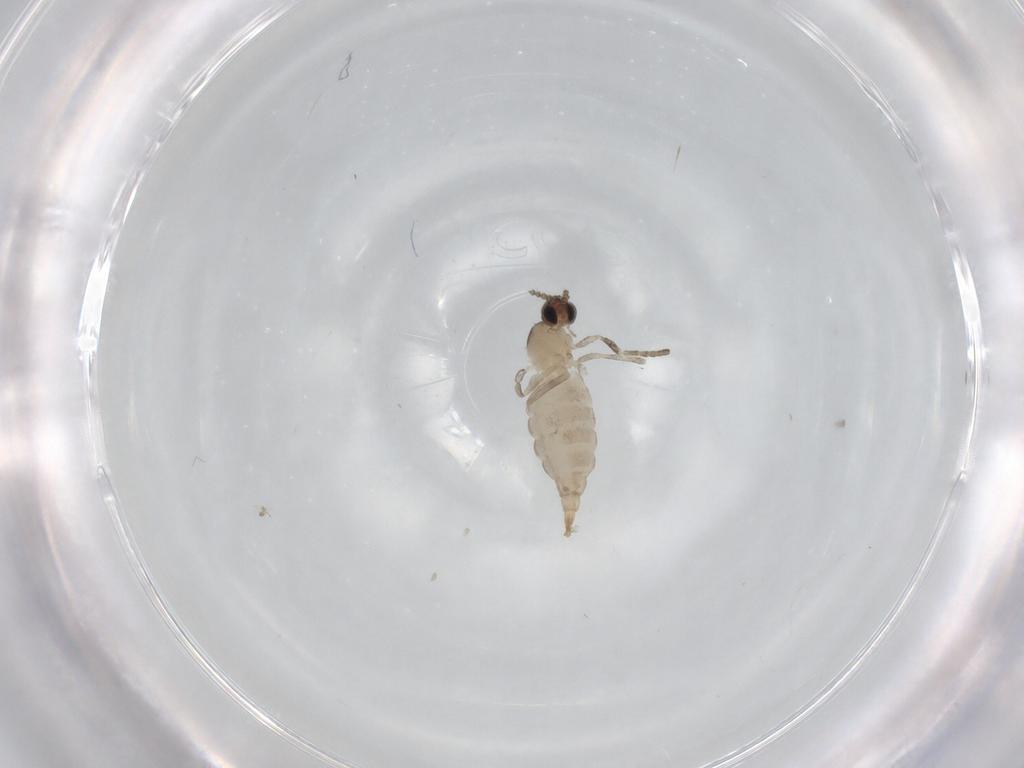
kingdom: Animalia
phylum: Arthropoda
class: Insecta
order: Diptera
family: Cecidomyiidae
